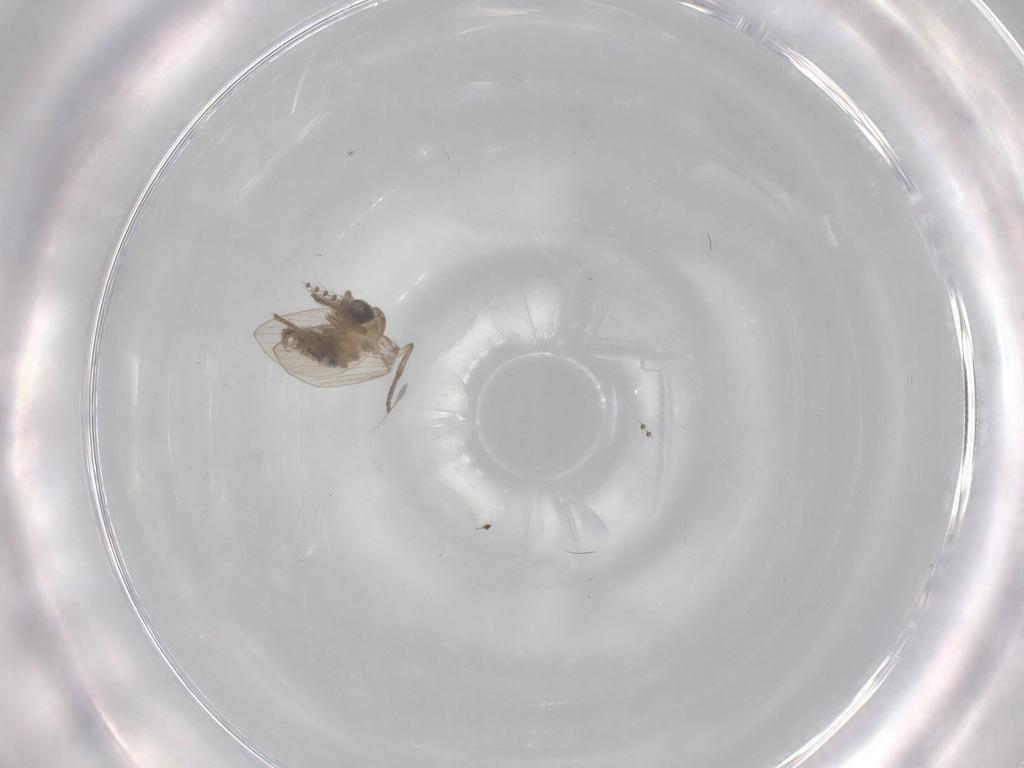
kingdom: Animalia
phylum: Arthropoda
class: Insecta
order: Diptera
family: Psychodidae
